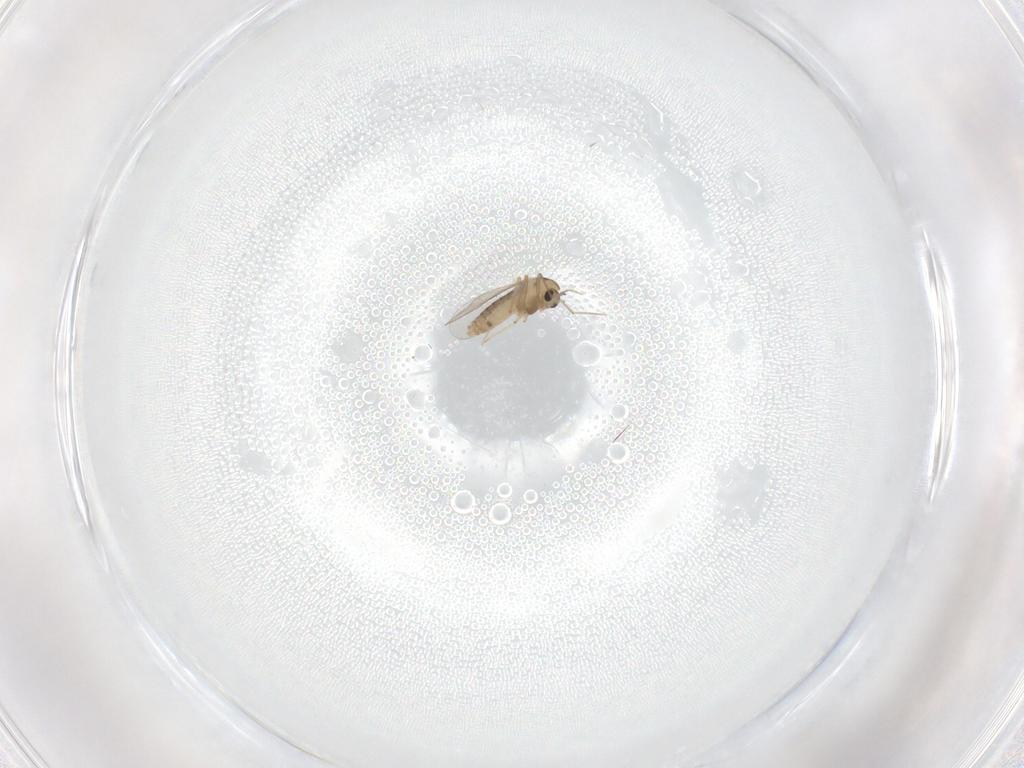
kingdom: Animalia
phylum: Arthropoda
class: Insecta
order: Diptera
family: Chironomidae
